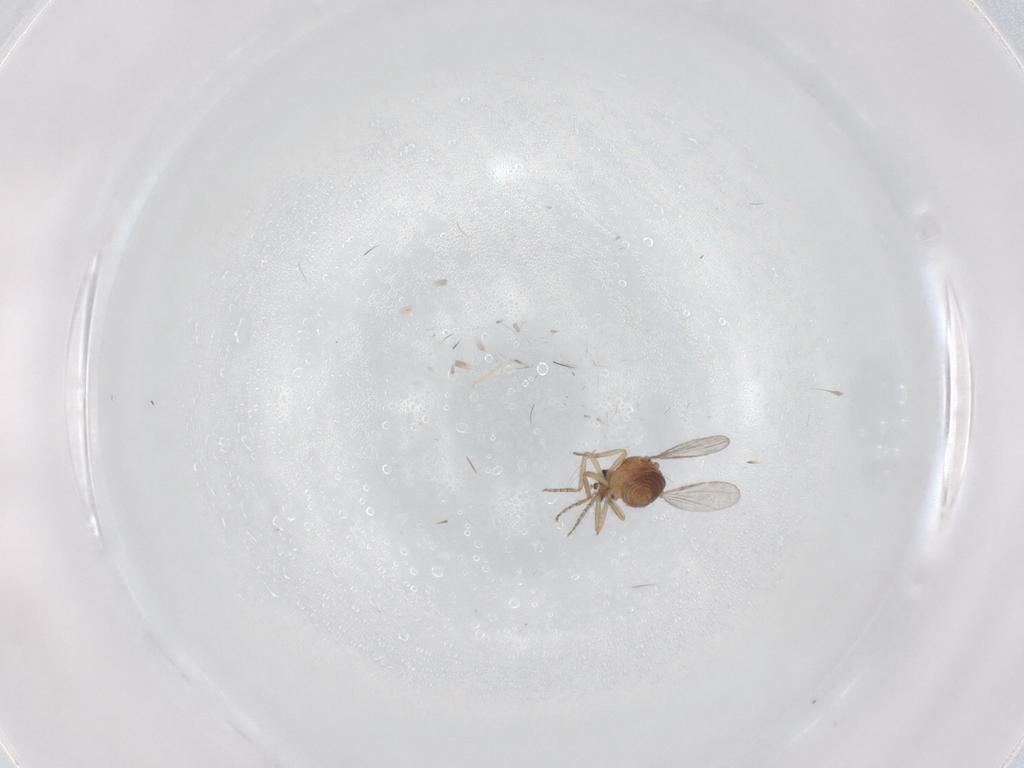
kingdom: Animalia
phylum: Arthropoda
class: Insecta
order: Diptera
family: Ceratopogonidae
